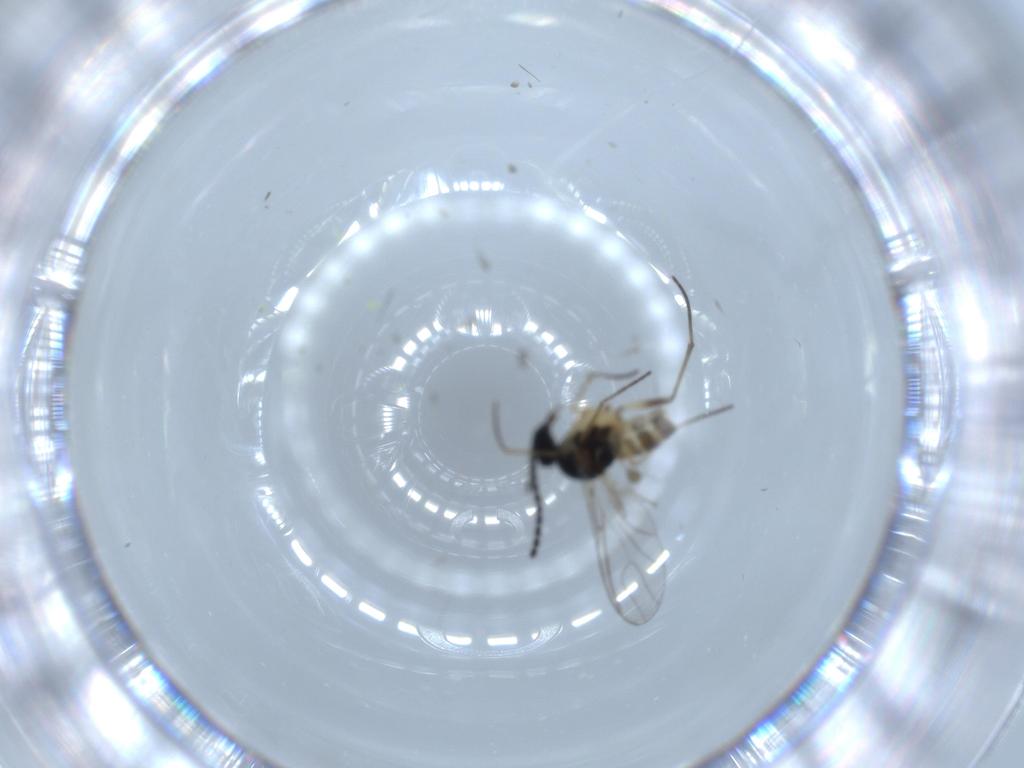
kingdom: Animalia
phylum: Arthropoda
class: Insecta
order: Diptera
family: Sciaridae
